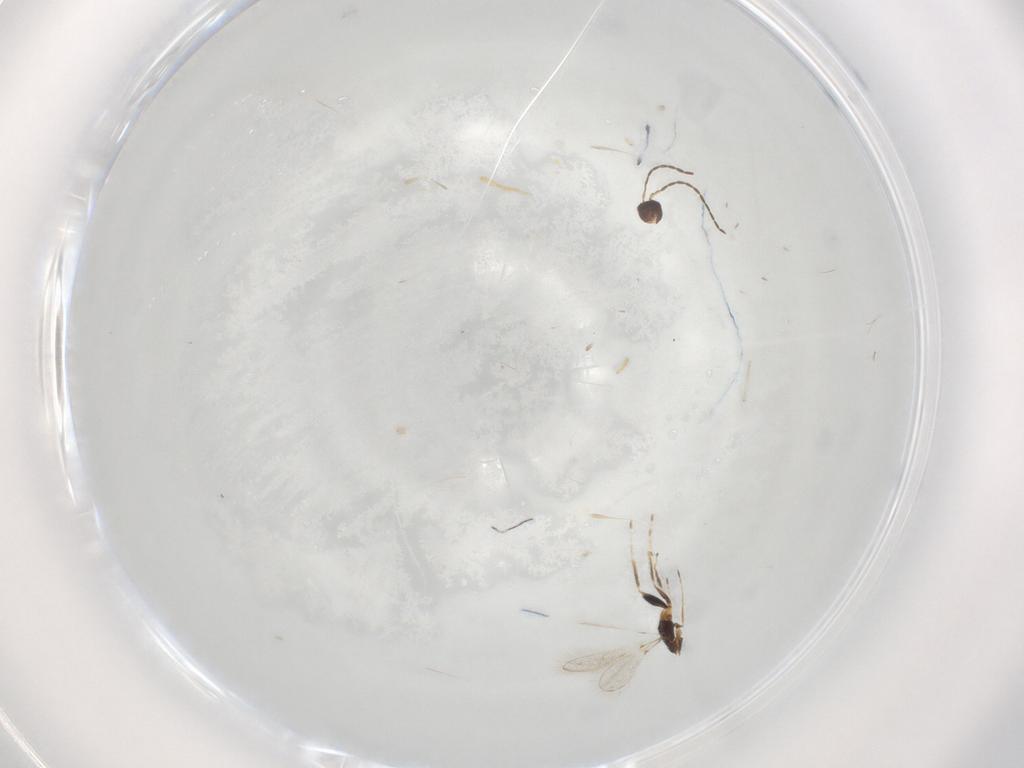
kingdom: Animalia
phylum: Arthropoda
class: Insecta
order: Hymenoptera
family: Mymaridae
